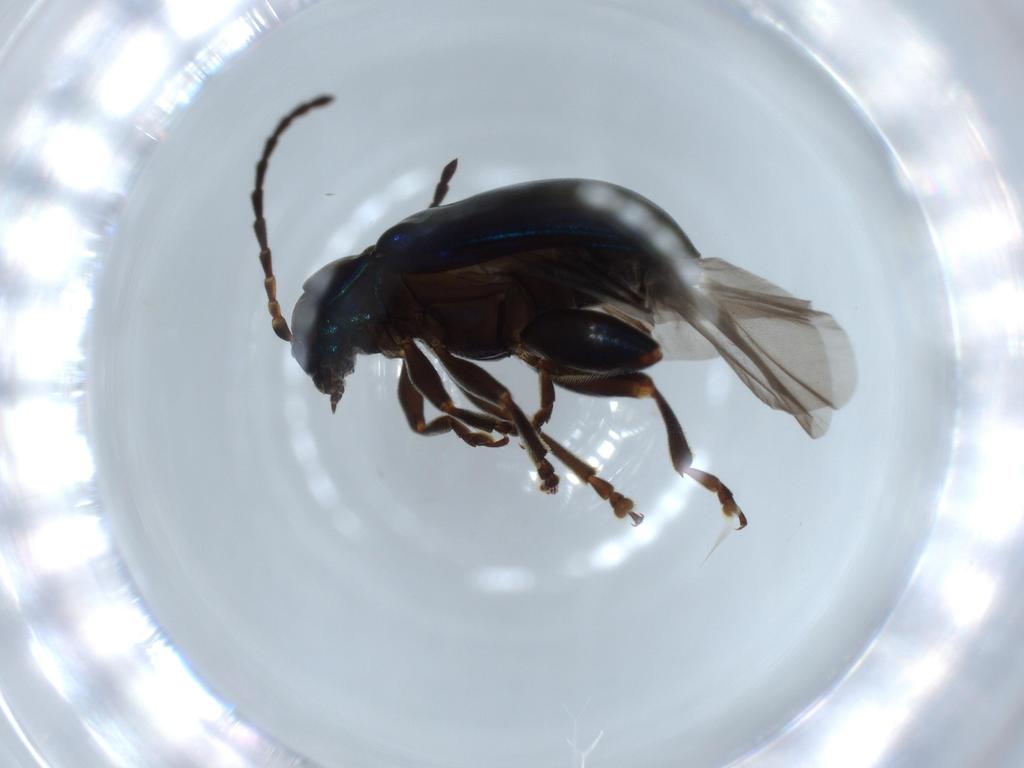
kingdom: Animalia
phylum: Arthropoda
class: Insecta
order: Coleoptera
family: Chrysomelidae
